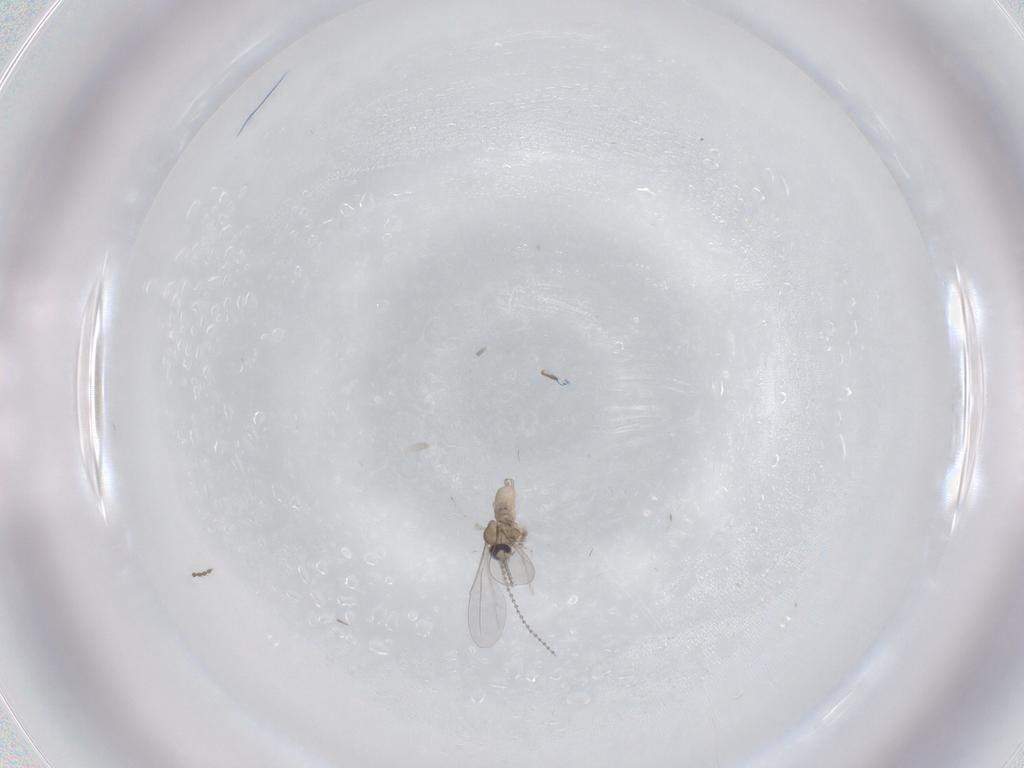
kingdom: Animalia
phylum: Arthropoda
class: Insecta
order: Diptera
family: Cecidomyiidae
